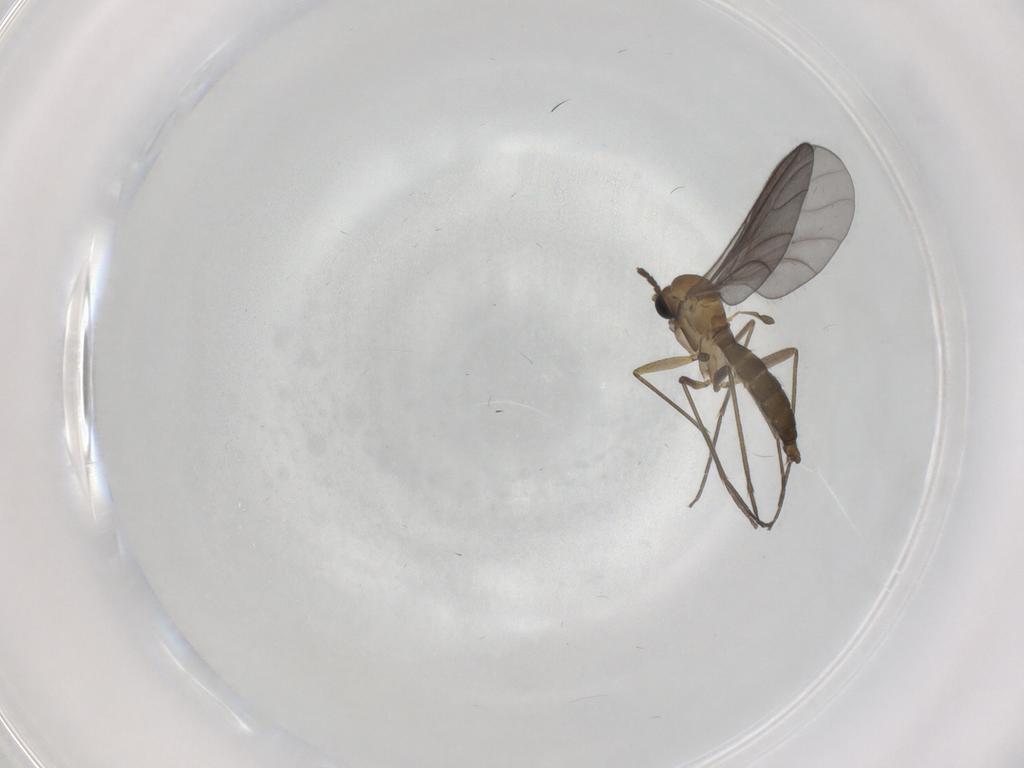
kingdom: Animalia
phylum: Arthropoda
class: Insecta
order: Diptera
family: Sciaridae
